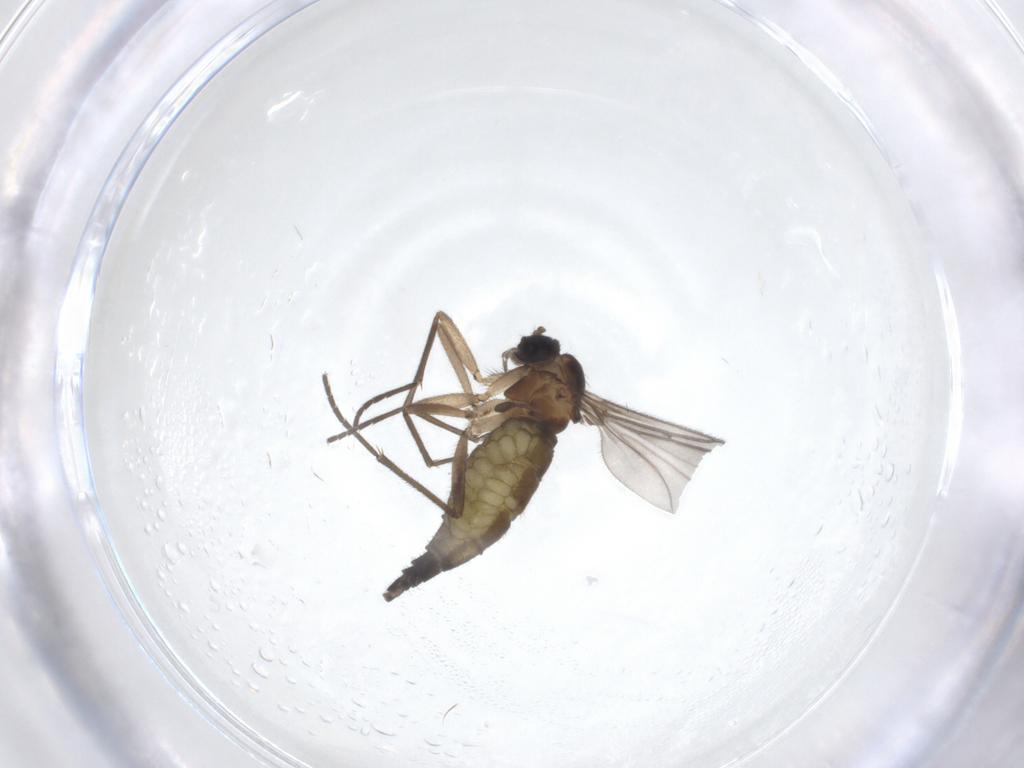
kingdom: Animalia
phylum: Arthropoda
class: Insecta
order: Diptera
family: Sciaridae
